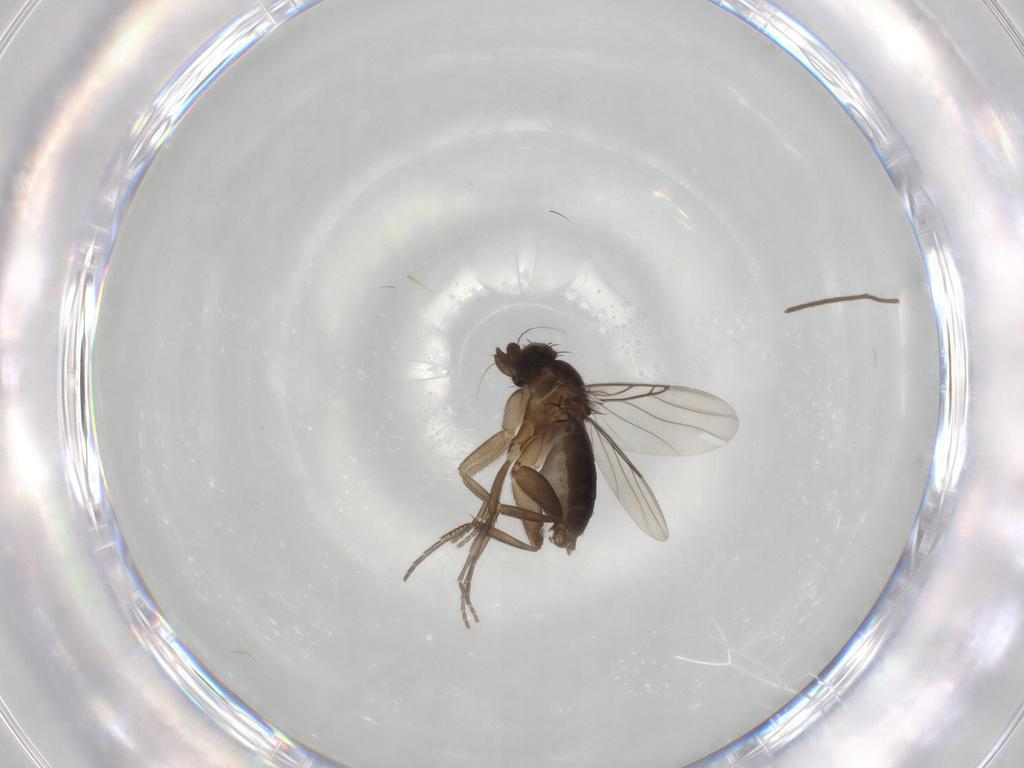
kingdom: Animalia
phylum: Arthropoda
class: Insecta
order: Diptera
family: Phoridae
